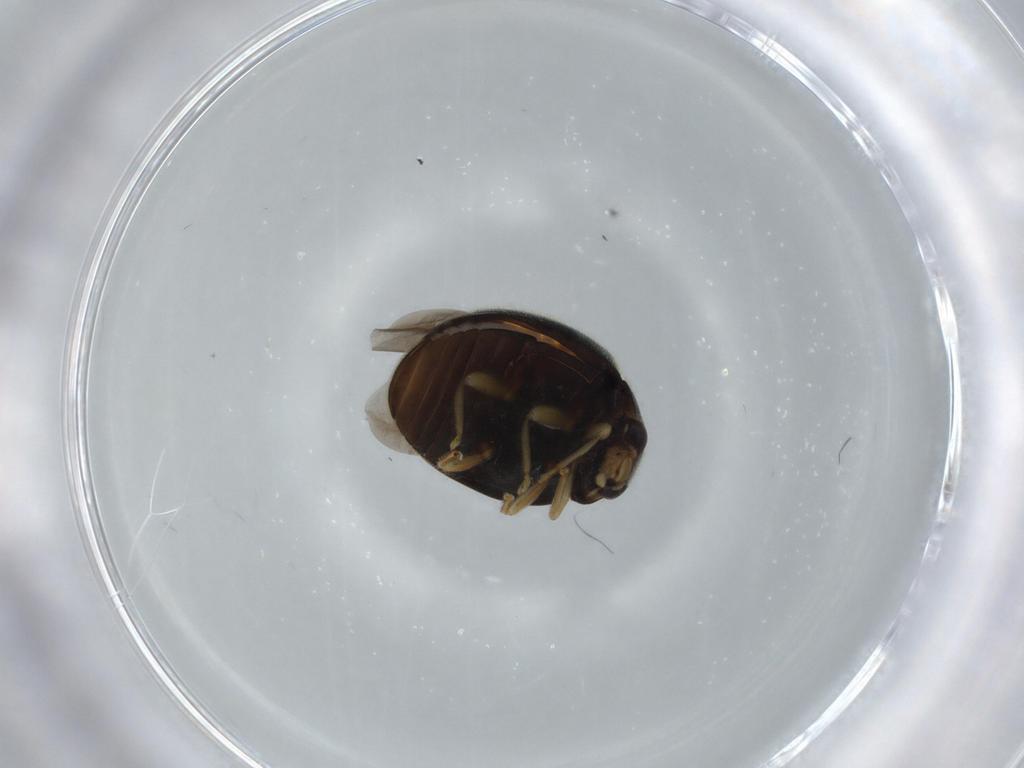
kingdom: Animalia
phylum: Arthropoda
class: Insecta
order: Coleoptera
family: Coccinellidae
